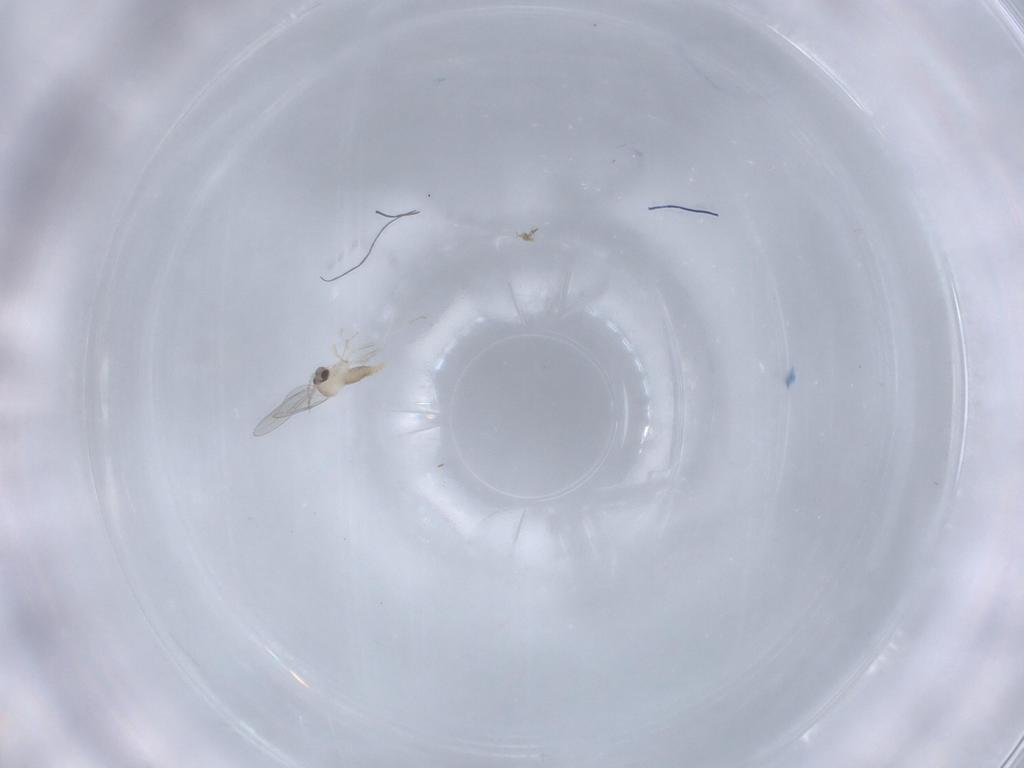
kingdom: Animalia
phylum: Arthropoda
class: Insecta
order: Diptera
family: Cecidomyiidae
